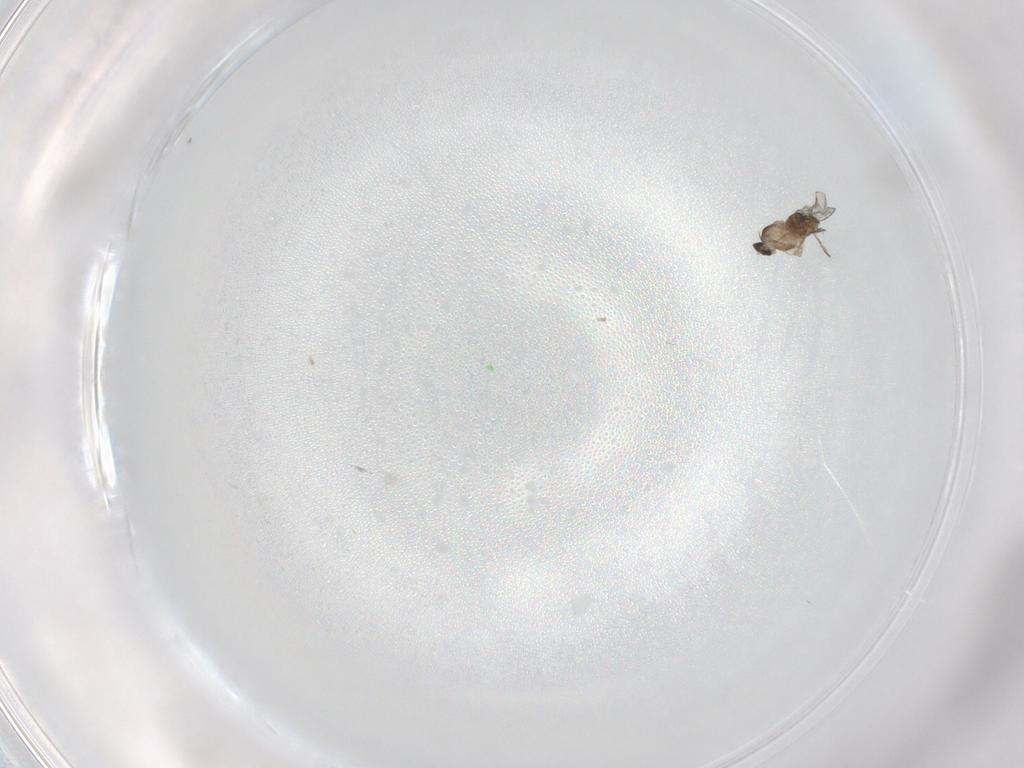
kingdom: Animalia
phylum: Arthropoda
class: Insecta
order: Diptera
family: Cecidomyiidae
